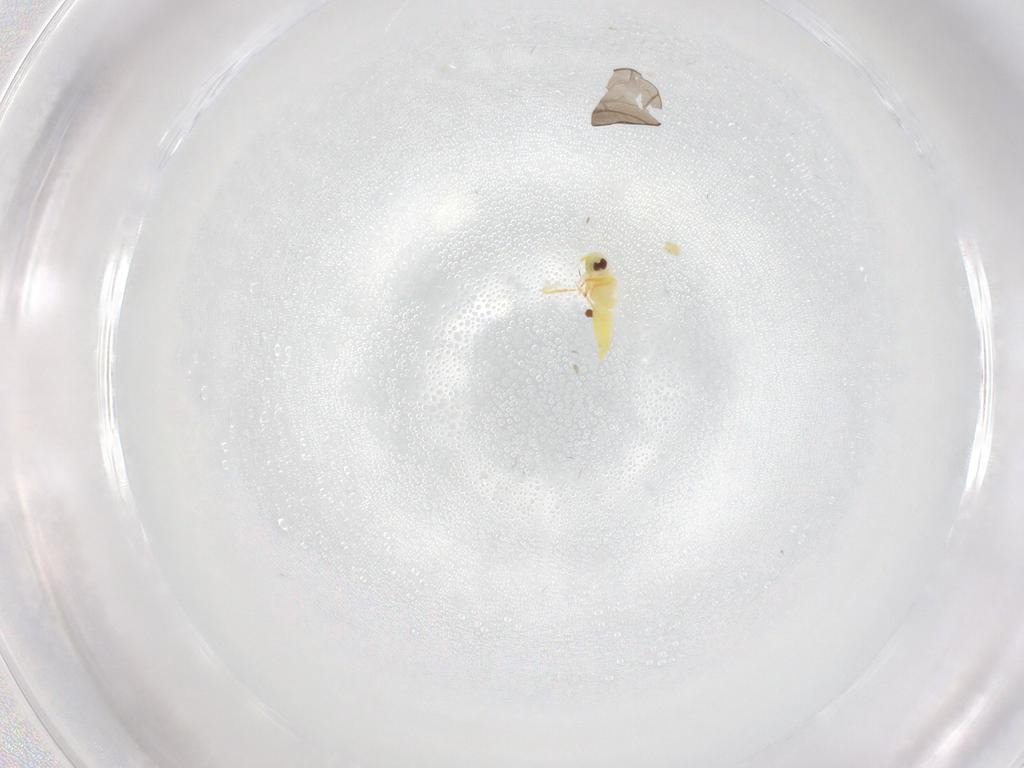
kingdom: Animalia
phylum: Arthropoda
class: Insecta
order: Hemiptera
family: Aleyrodidae
